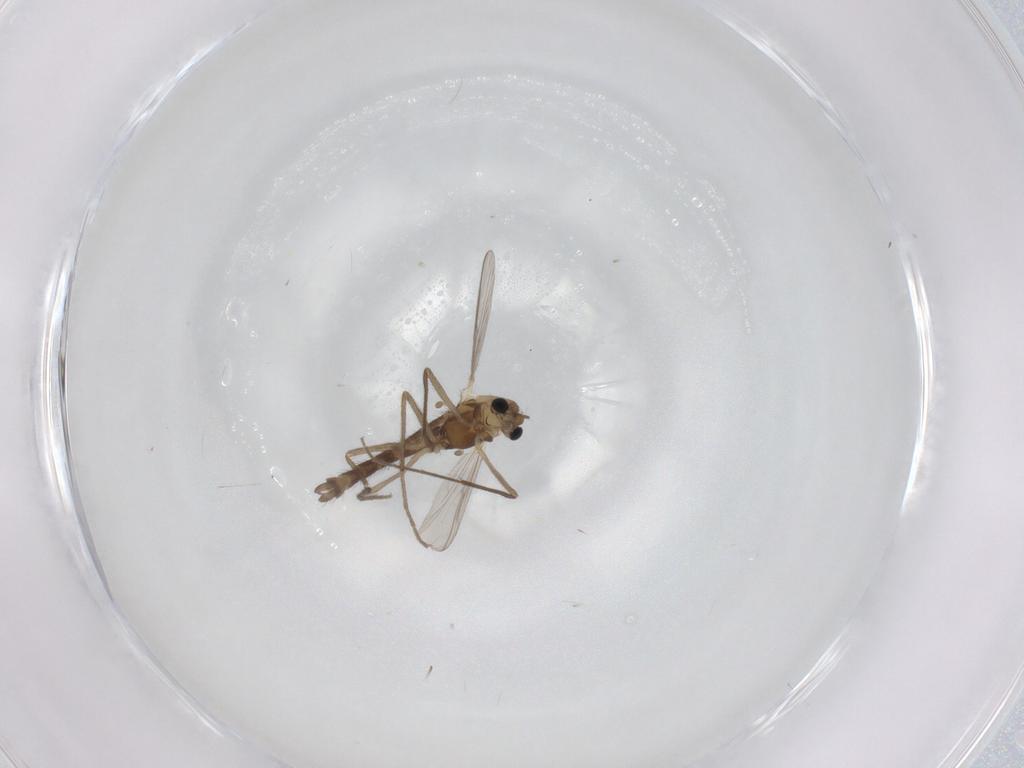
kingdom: Animalia
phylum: Arthropoda
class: Insecta
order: Diptera
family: Chironomidae
